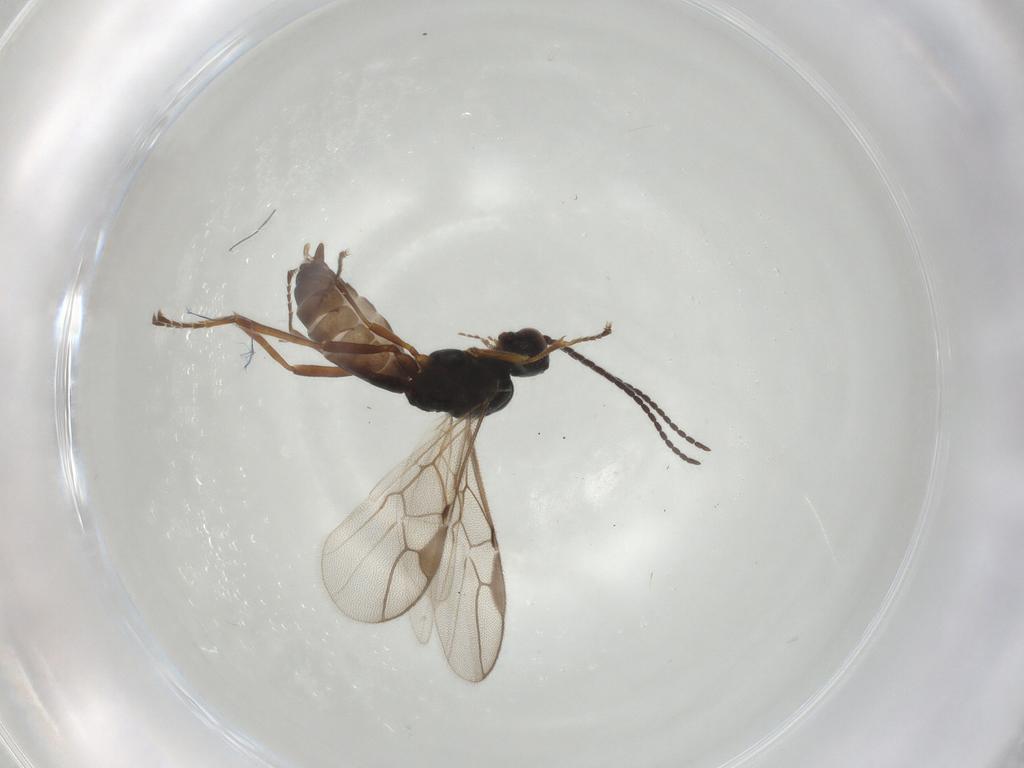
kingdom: Animalia
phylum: Arthropoda
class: Insecta
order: Hymenoptera
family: Braconidae
